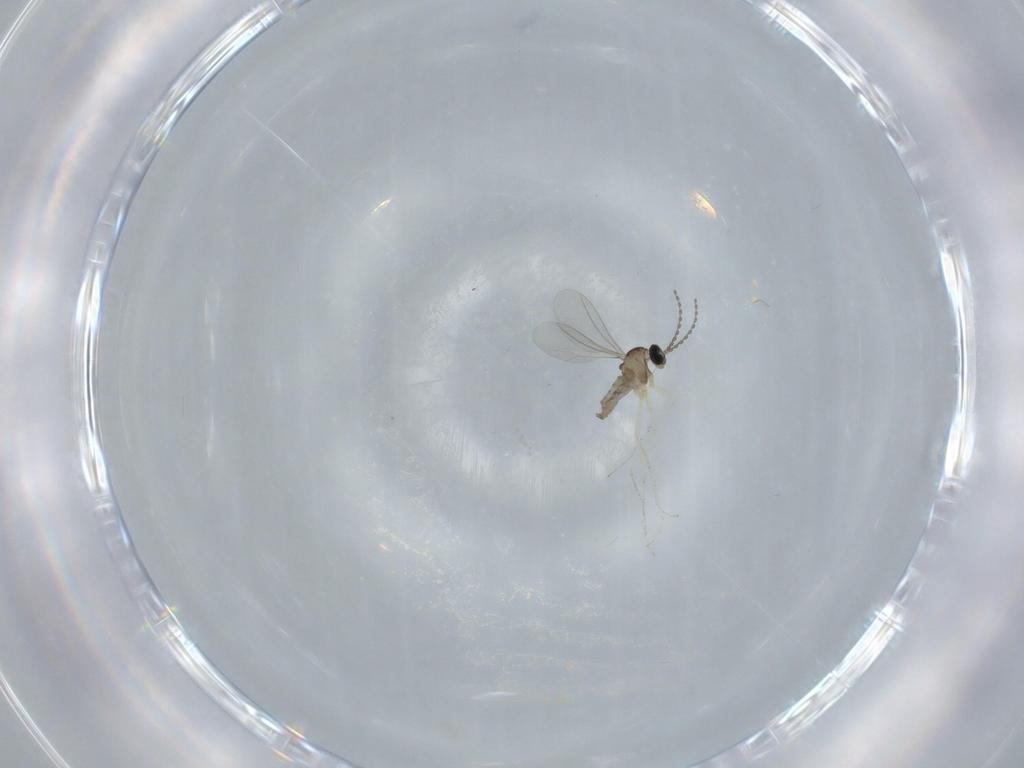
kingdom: Animalia
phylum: Arthropoda
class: Insecta
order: Diptera
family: Cecidomyiidae
